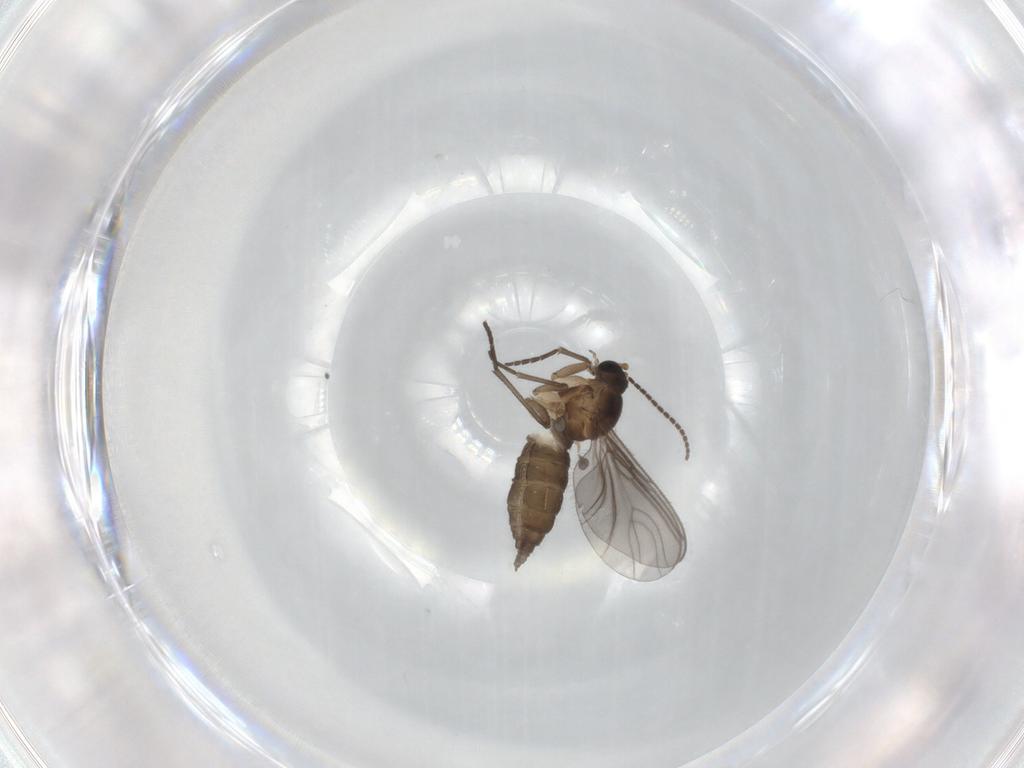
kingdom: Animalia
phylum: Arthropoda
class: Insecta
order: Diptera
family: Sciaridae
